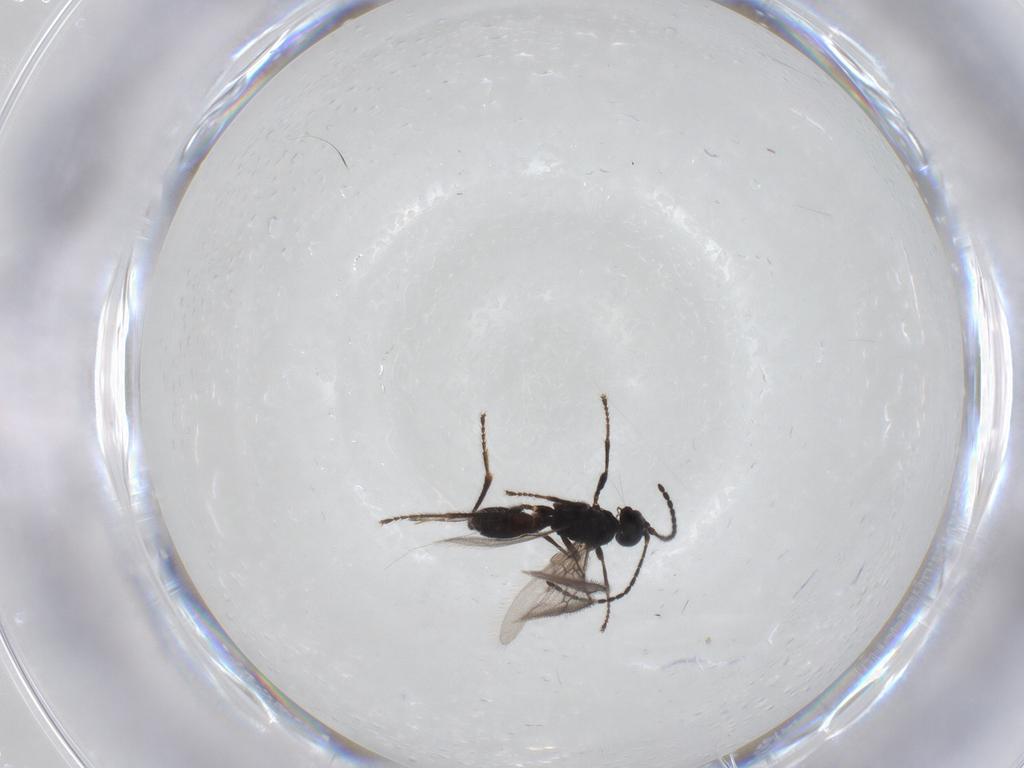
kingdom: Animalia
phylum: Arthropoda
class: Insecta
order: Hymenoptera
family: Braconidae
